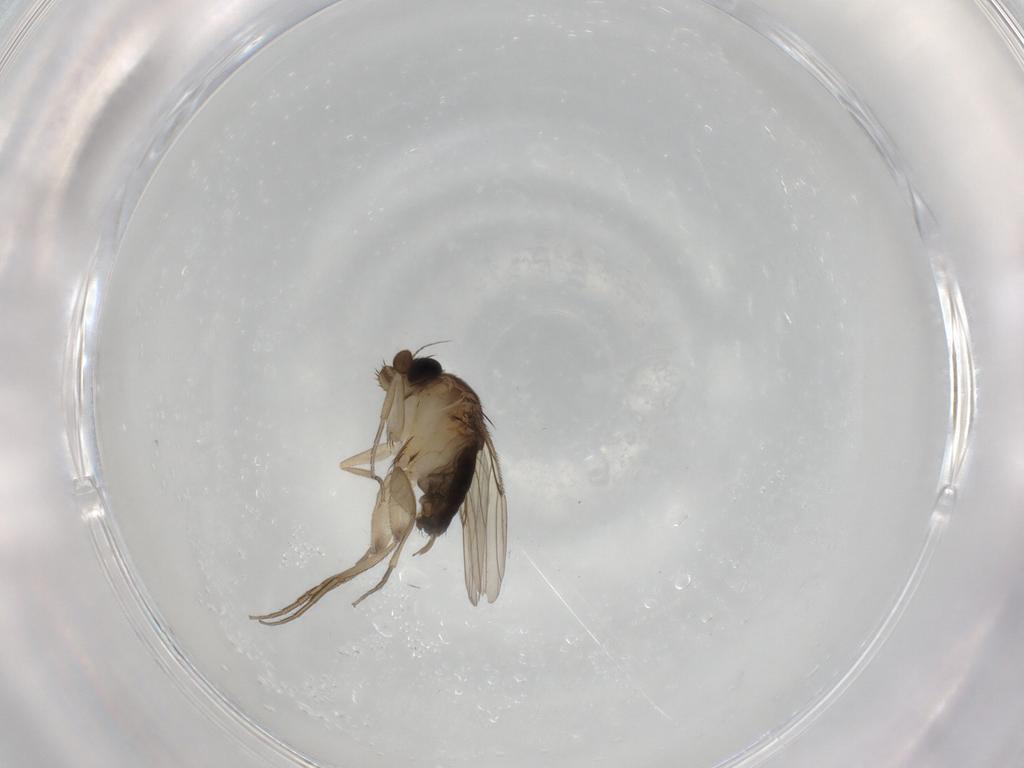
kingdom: Animalia
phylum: Arthropoda
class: Insecta
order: Diptera
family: Phoridae
